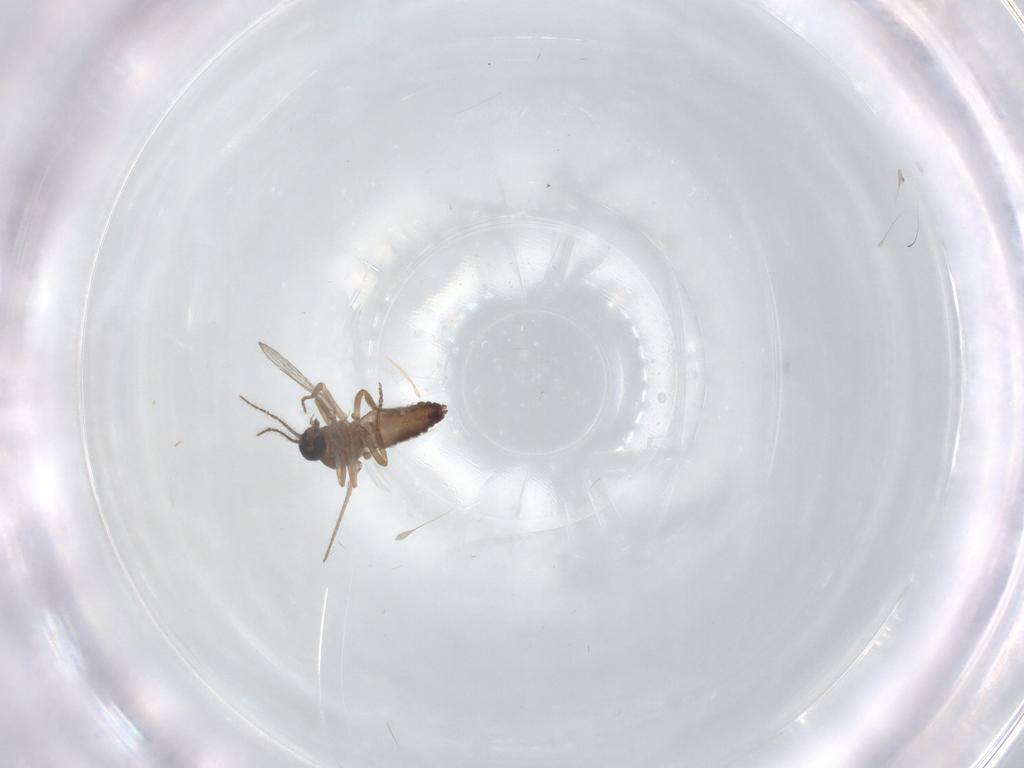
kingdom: Animalia
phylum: Arthropoda
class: Insecta
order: Diptera
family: Ceratopogonidae
